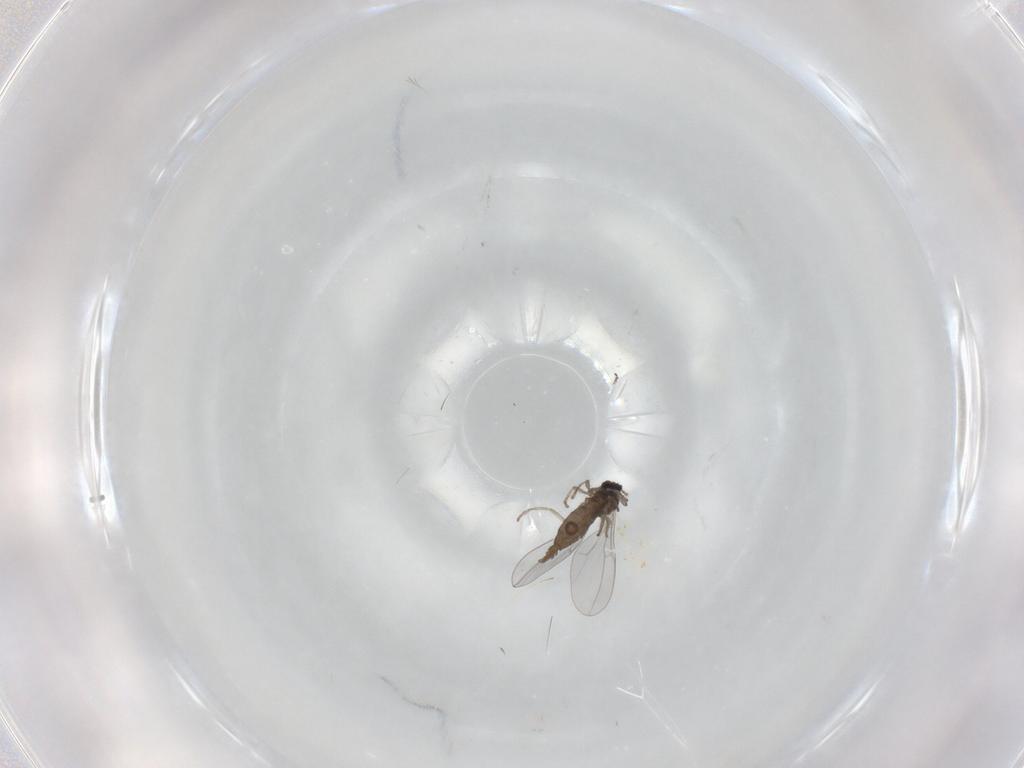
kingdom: Animalia
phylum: Arthropoda
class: Insecta
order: Diptera
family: Cecidomyiidae
